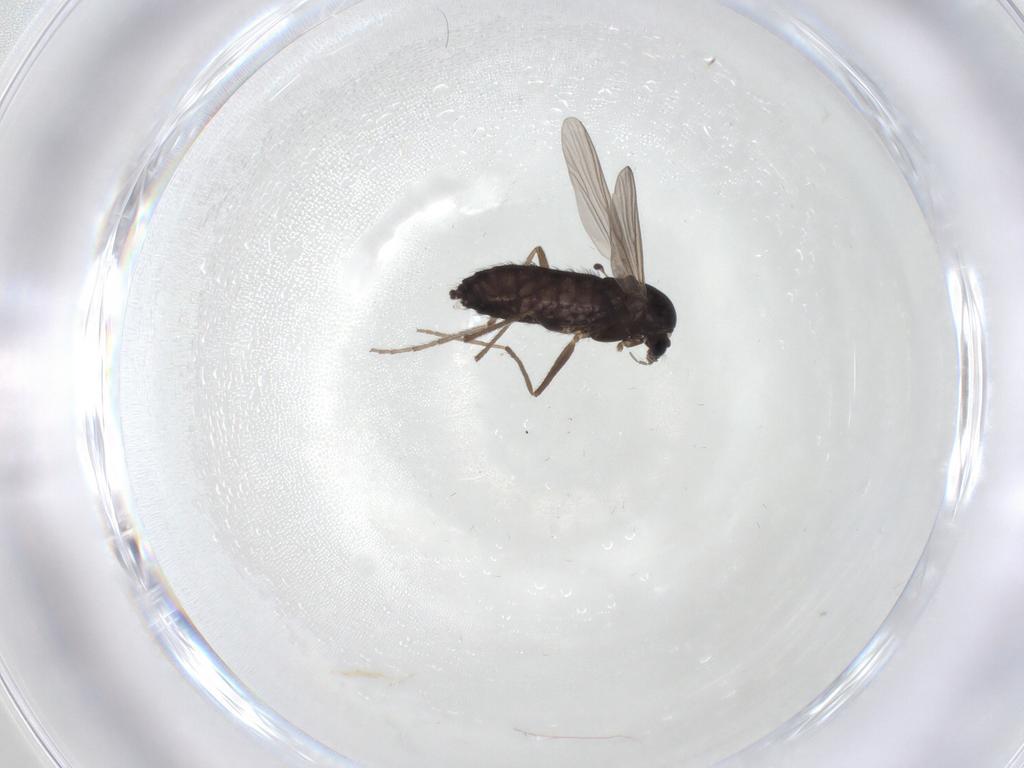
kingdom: Animalia
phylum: Arthropoda
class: Insecta
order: Diptera
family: Chironomidae
